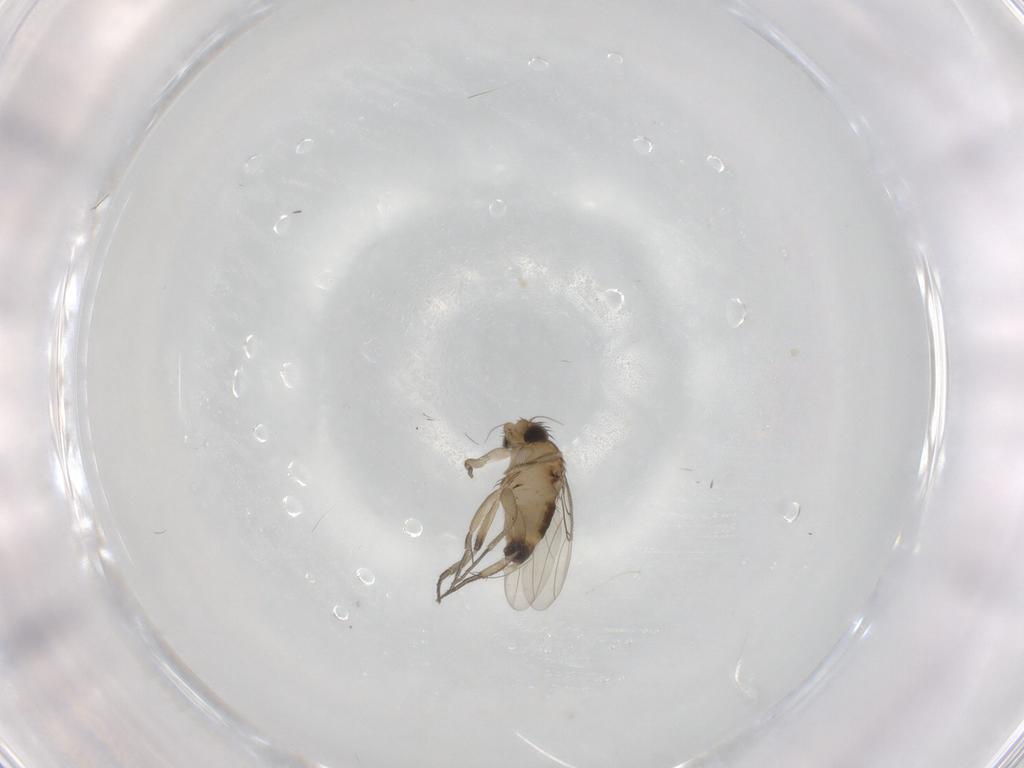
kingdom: Animalia
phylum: Arthropoda
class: Insecta
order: Diptera
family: Phoridae
